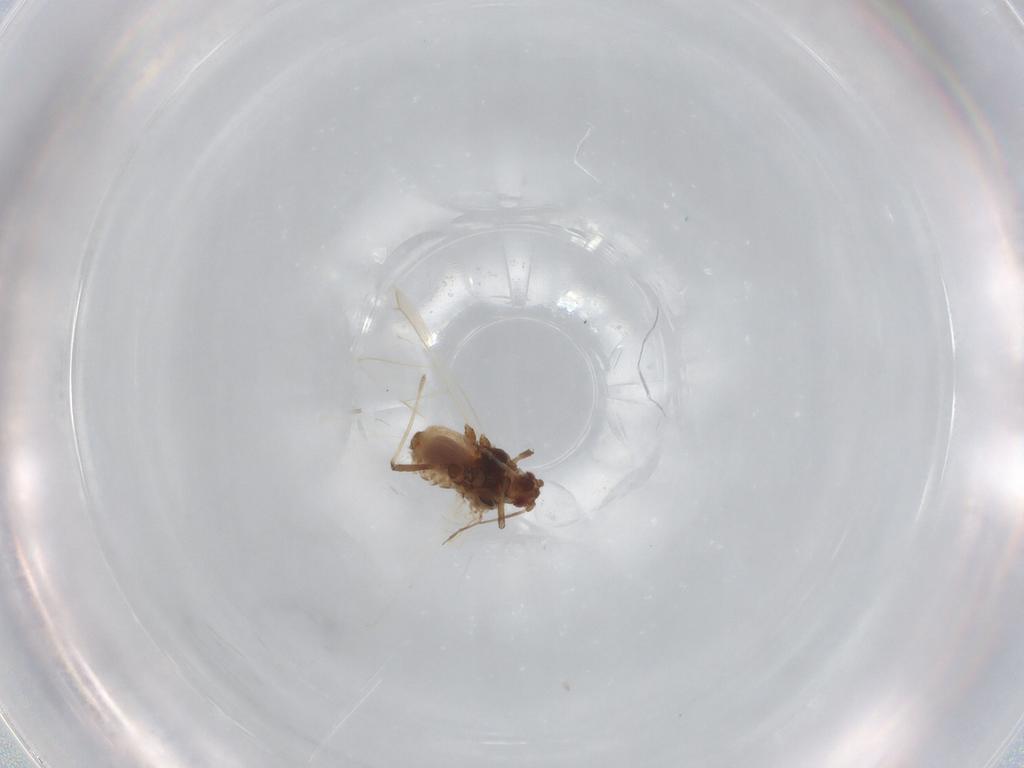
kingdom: Animalia
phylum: Arthropoda
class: Insecta
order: Hemiptera
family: Aphididae
